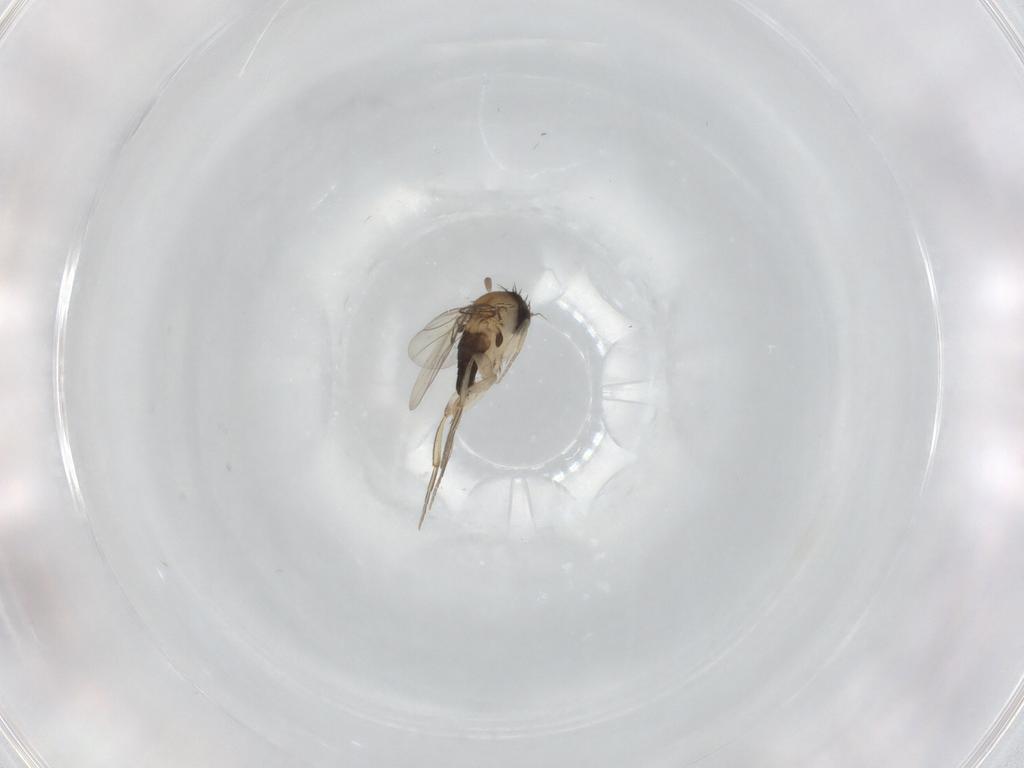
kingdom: Animalia
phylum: Arthropoda
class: Insecta
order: Diptera
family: Phoridae
